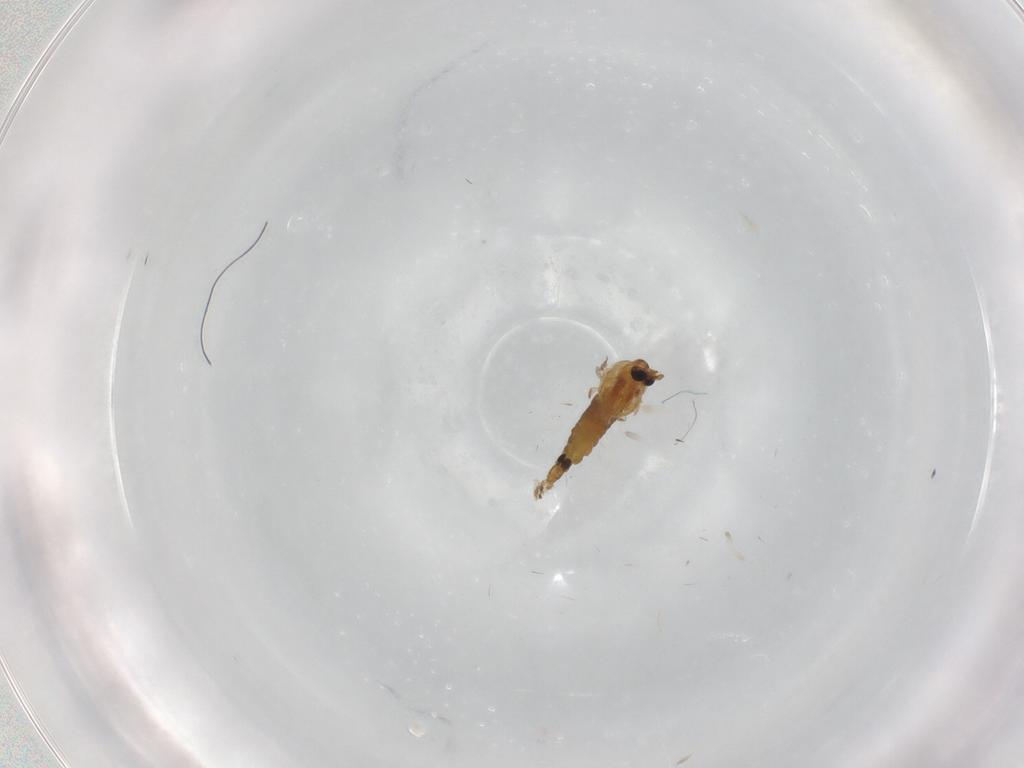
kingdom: Animalia
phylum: Arthropoda
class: Insecta
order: Diptera
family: Chironomidae
